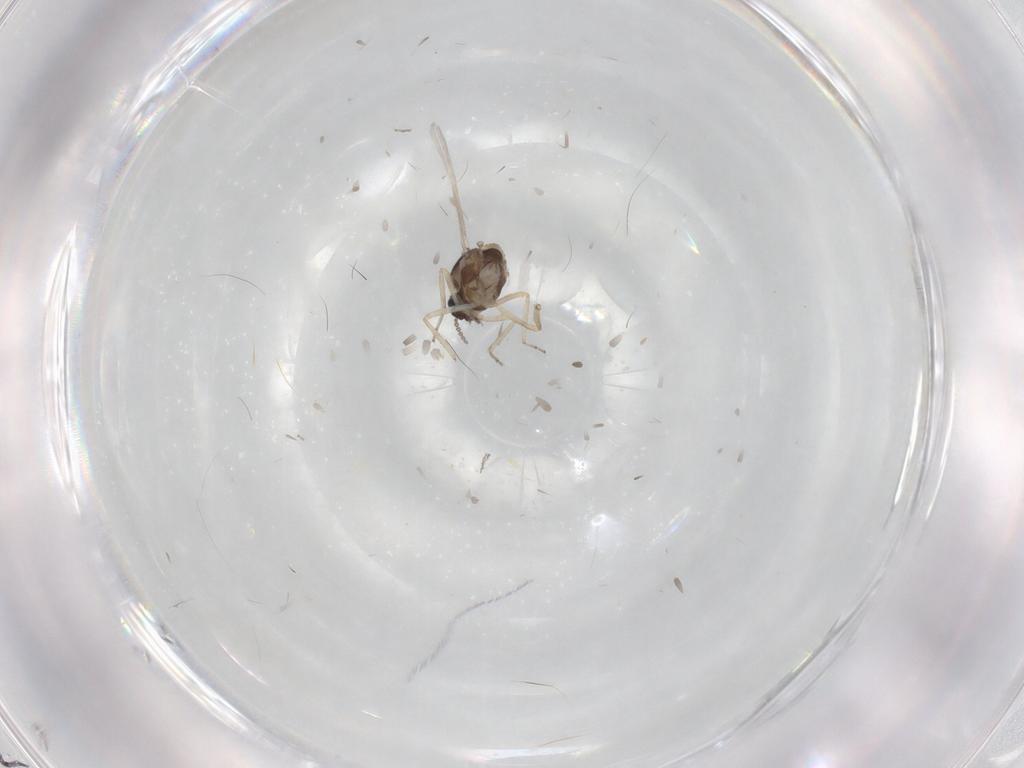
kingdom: Animalia
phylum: Arthropoda
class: Insecta
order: Diptera
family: Ceratopogonidae
